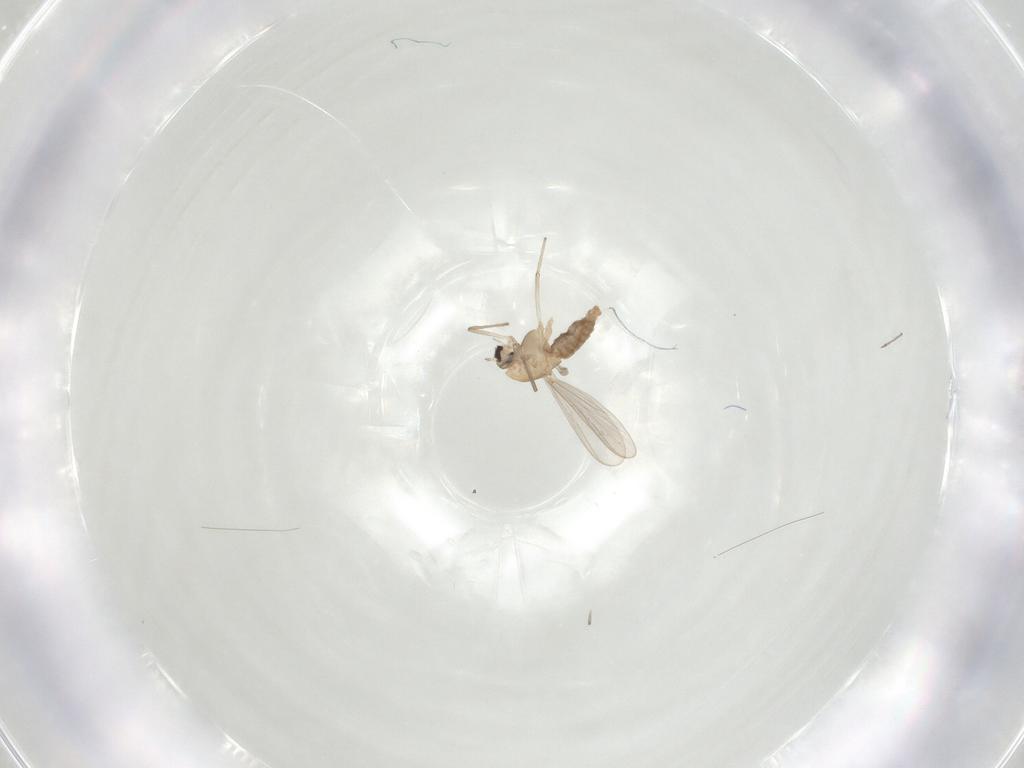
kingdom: Animalia
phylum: Arthropoda
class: Insecta
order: Diptera
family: Chironomidae
